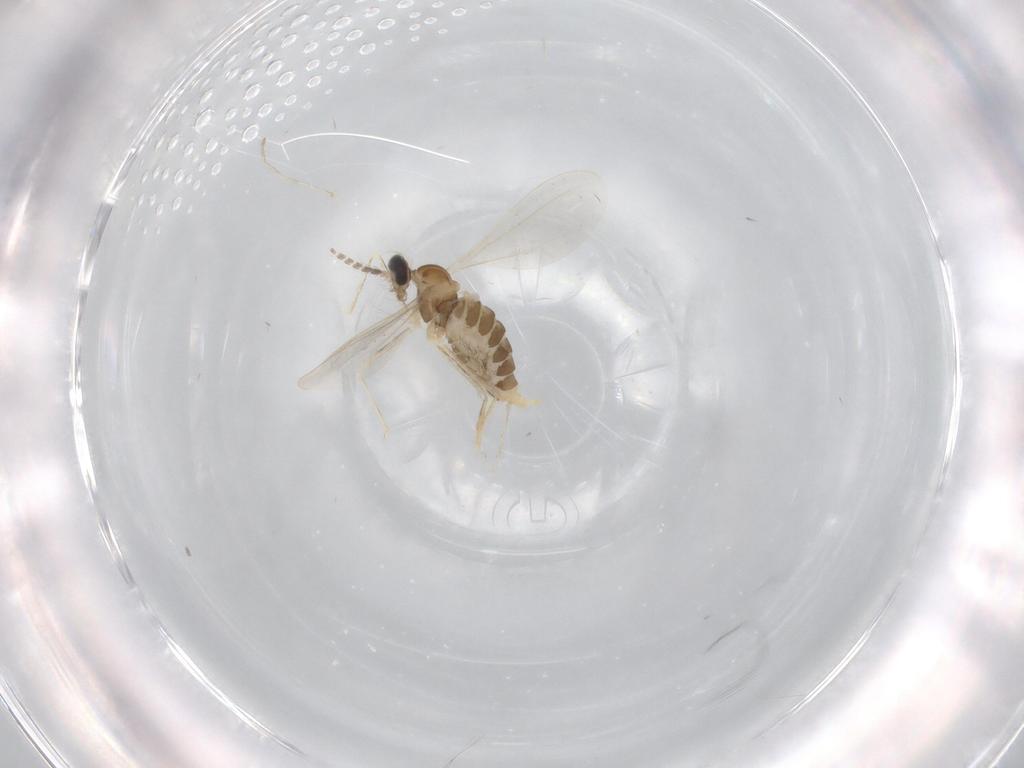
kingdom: Animalia
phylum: Arthropoda
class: Insecta
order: Diptera
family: Cecidomyiidae
